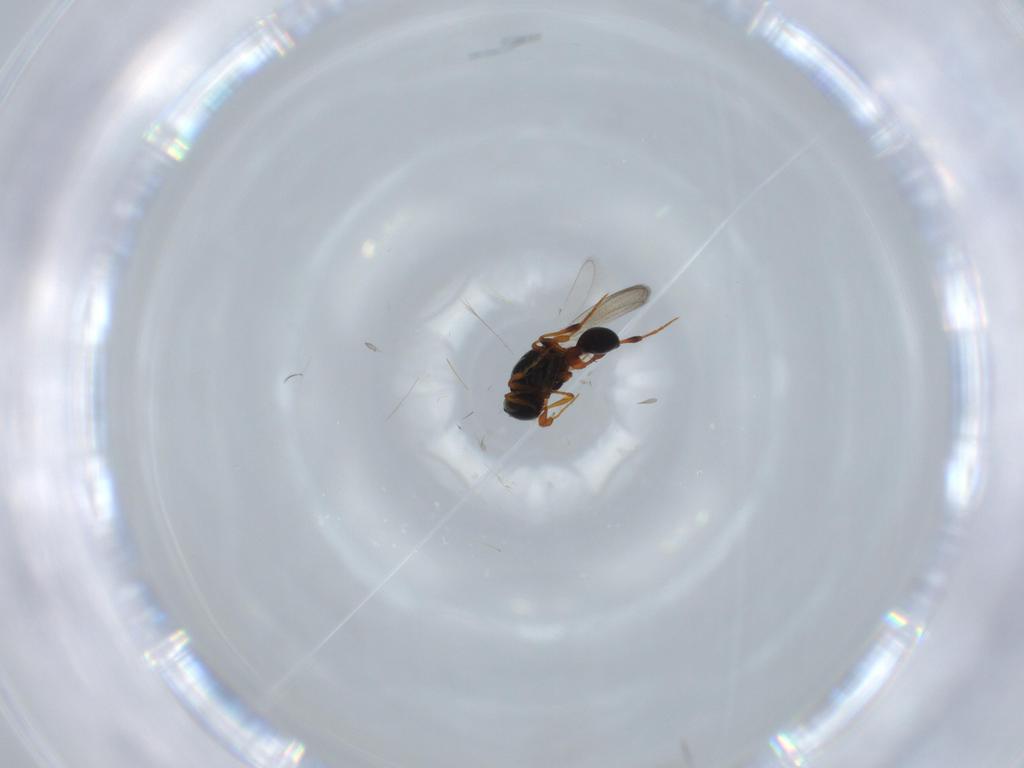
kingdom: Animalia
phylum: Arthropoda
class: Insecta
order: Hymenoptera
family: Platygastridae
